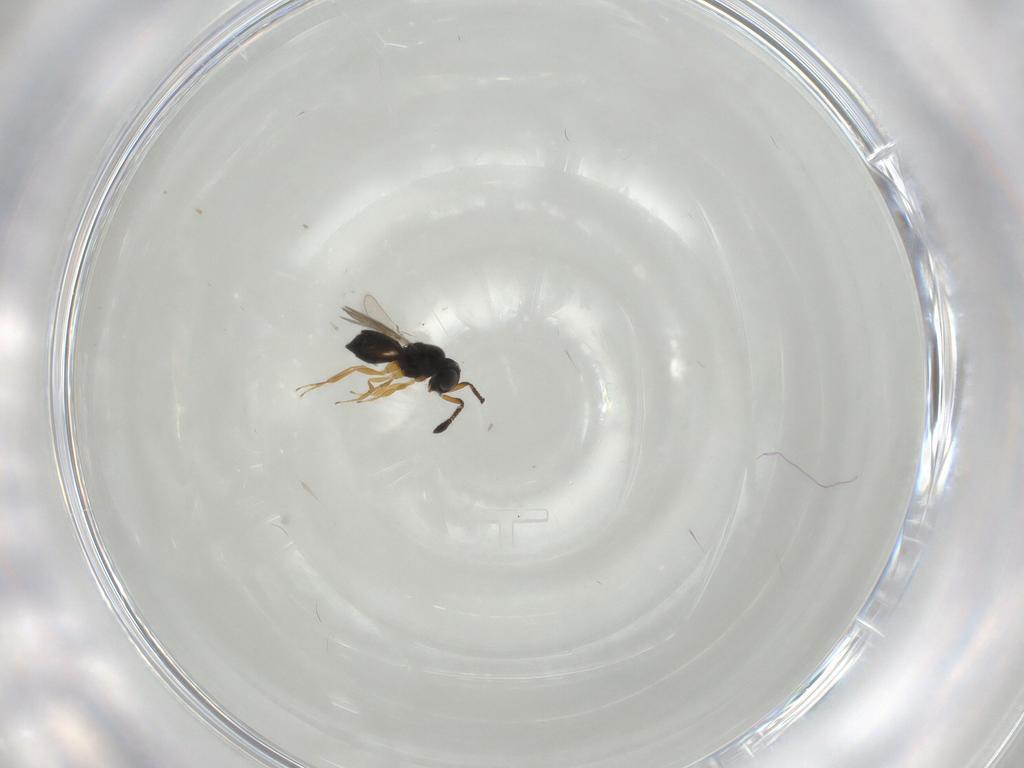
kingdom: Animalia
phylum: Arthropoda
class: Insecta
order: Hymenoptera
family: Scelionidae
